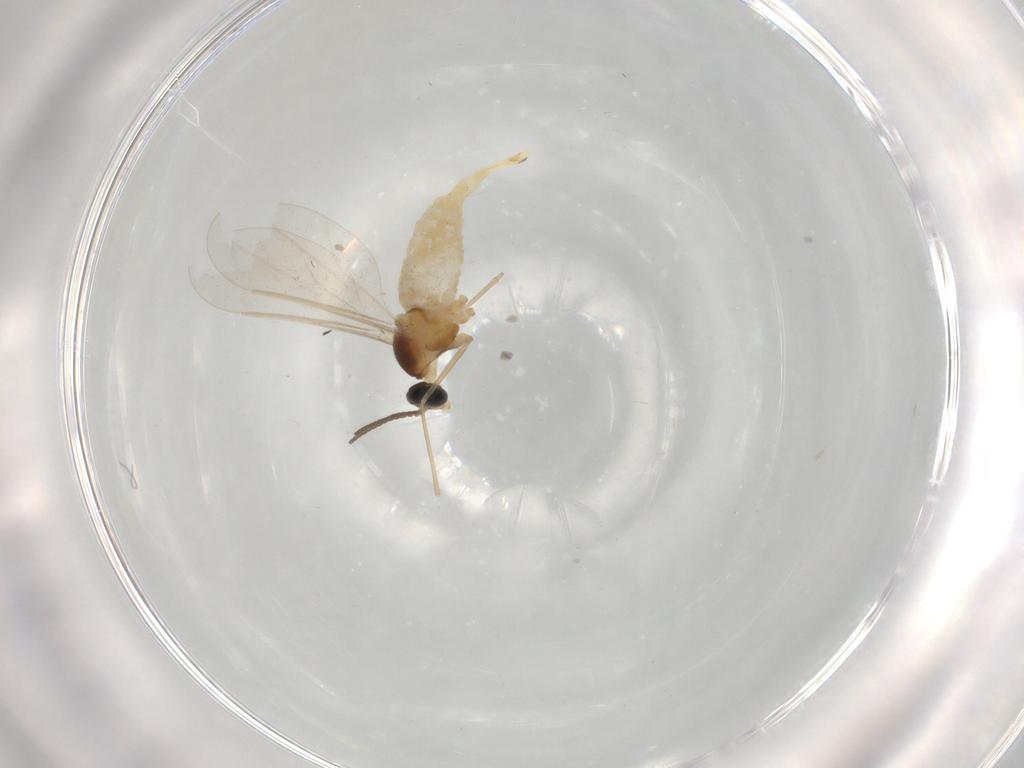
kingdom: Animalia
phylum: Arthropoda
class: Insecta
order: Diptera
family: Cecidomyiidae
